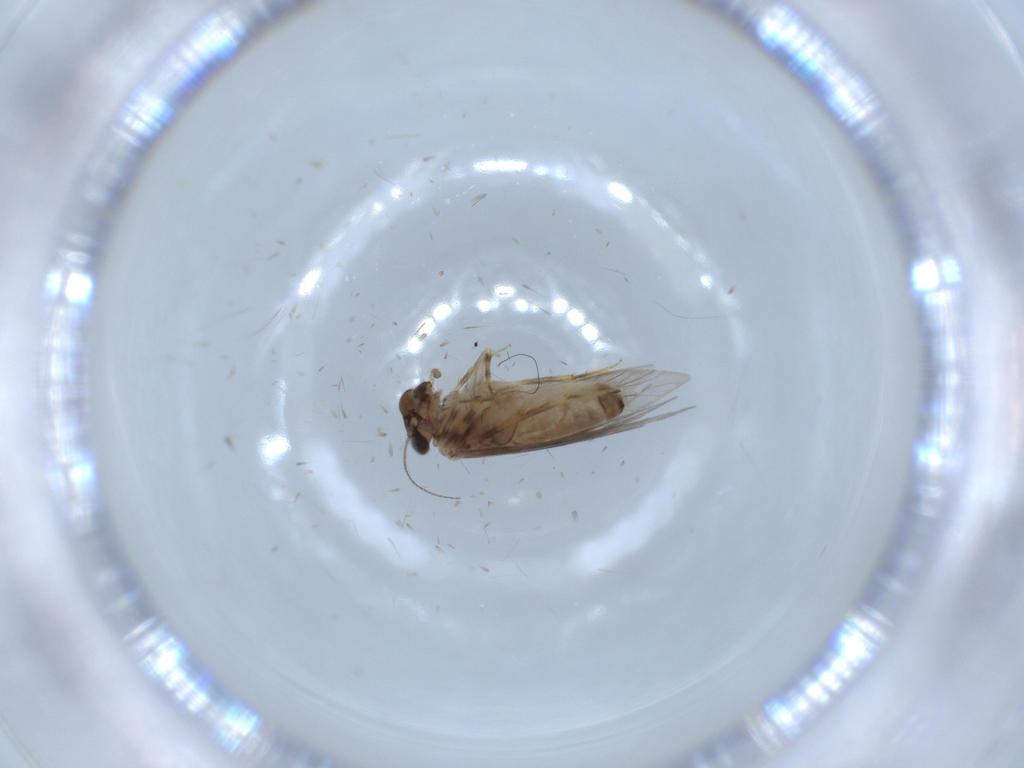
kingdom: Animalia
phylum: Arthropoda
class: Insecta
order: Psocodea
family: Lepidopsocidae
